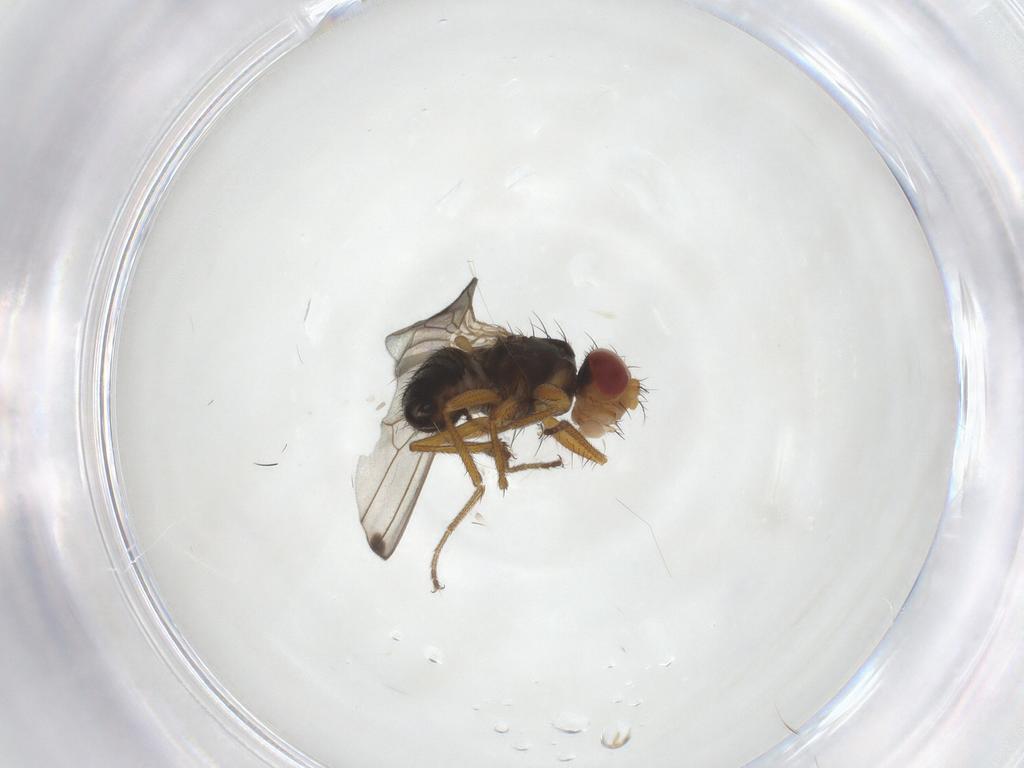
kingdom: Animalia
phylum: Arthropoda
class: Insecta
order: Diptera
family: Drosophilidae
